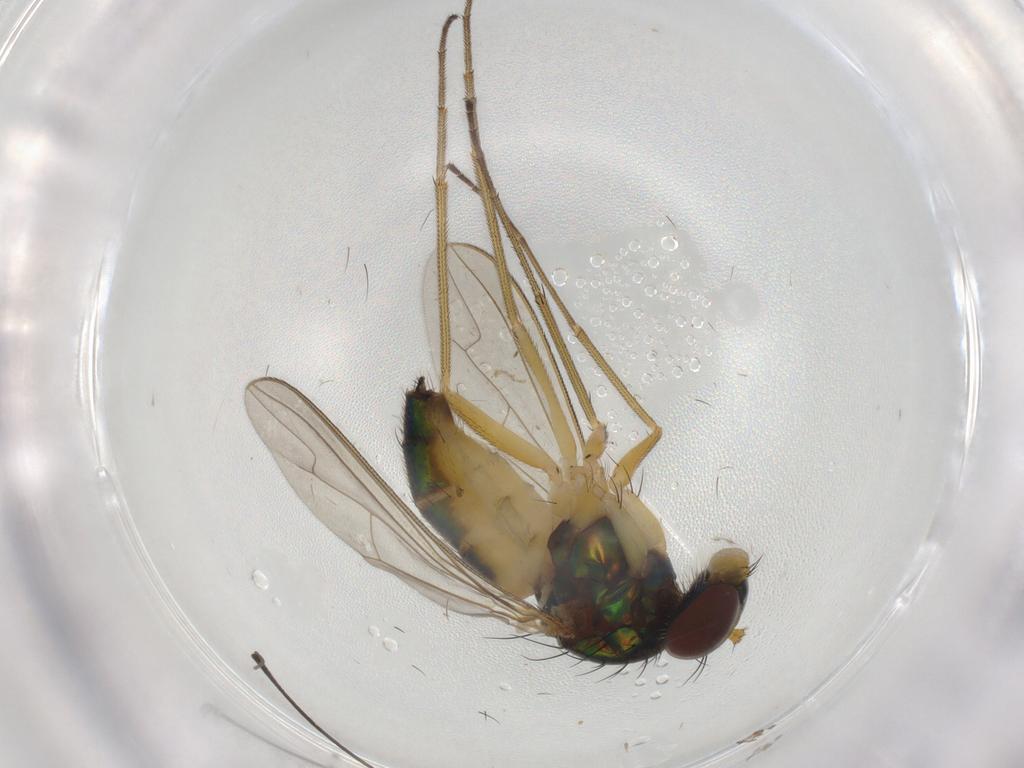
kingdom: Animalia
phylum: Arthropoda
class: Insecta
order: Diptera
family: Dolichopodidae
